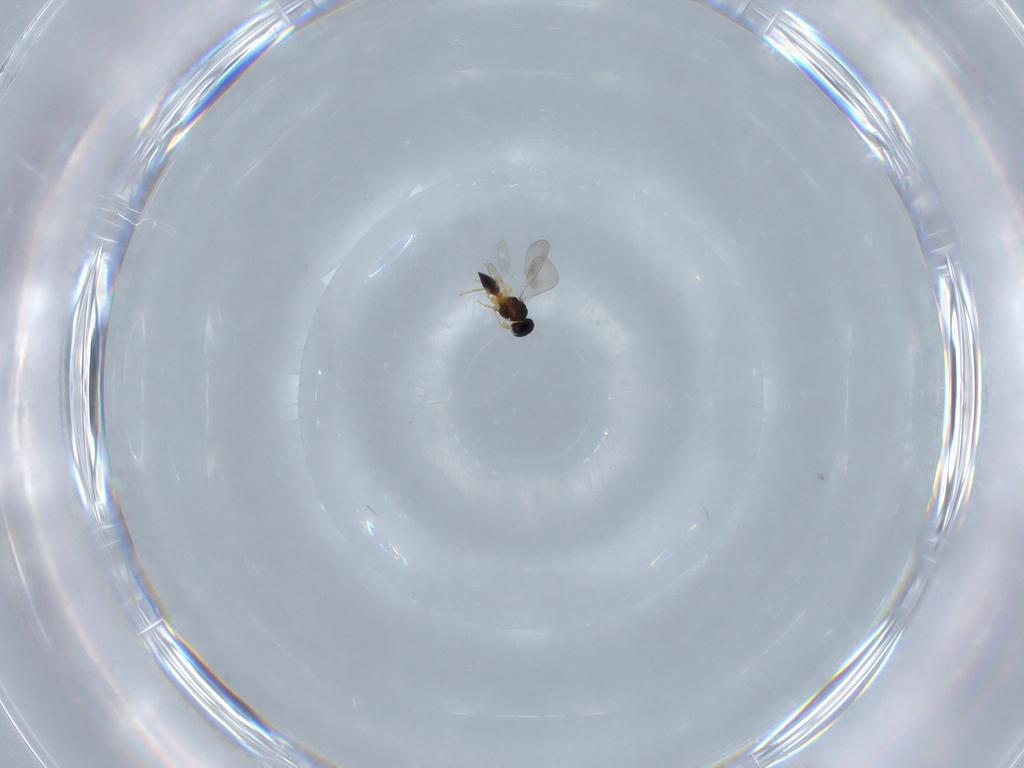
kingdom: Animalia
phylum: Arthropoda
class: Insecta
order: Hymenoptera
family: Platygastridae
